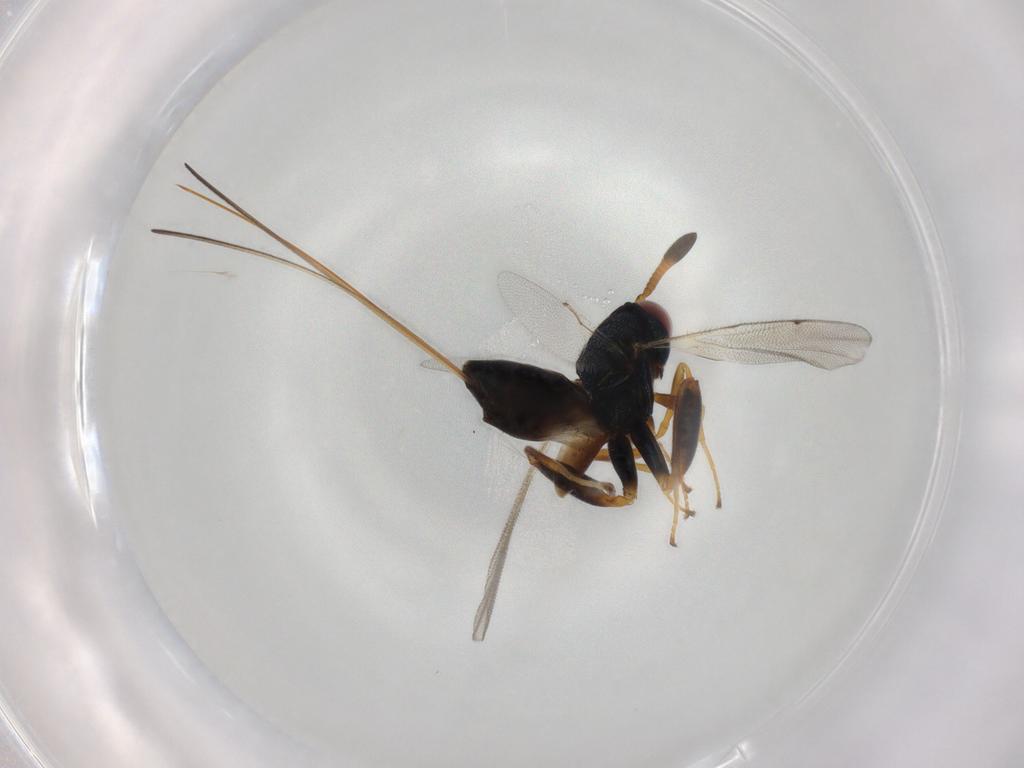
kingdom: Animalia
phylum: Arthropoda
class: Insecta
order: Hymenoptera
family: Torymidae
